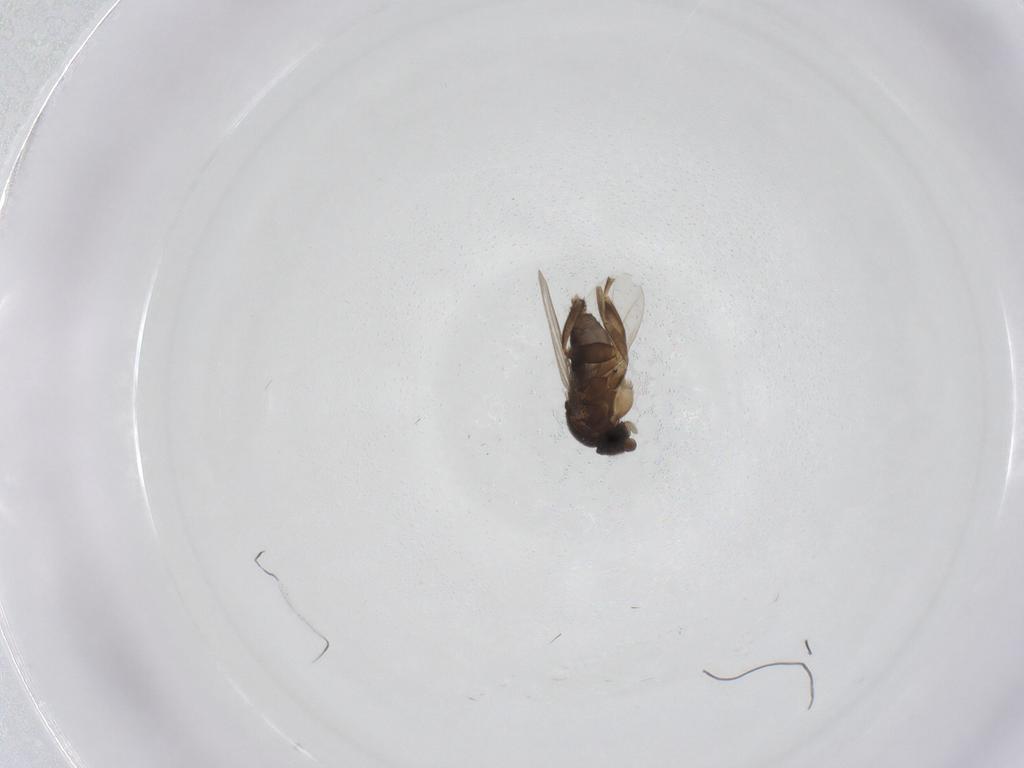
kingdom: Animalia
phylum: Arthropoda
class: Insecta
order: Diptera
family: Phoridae
